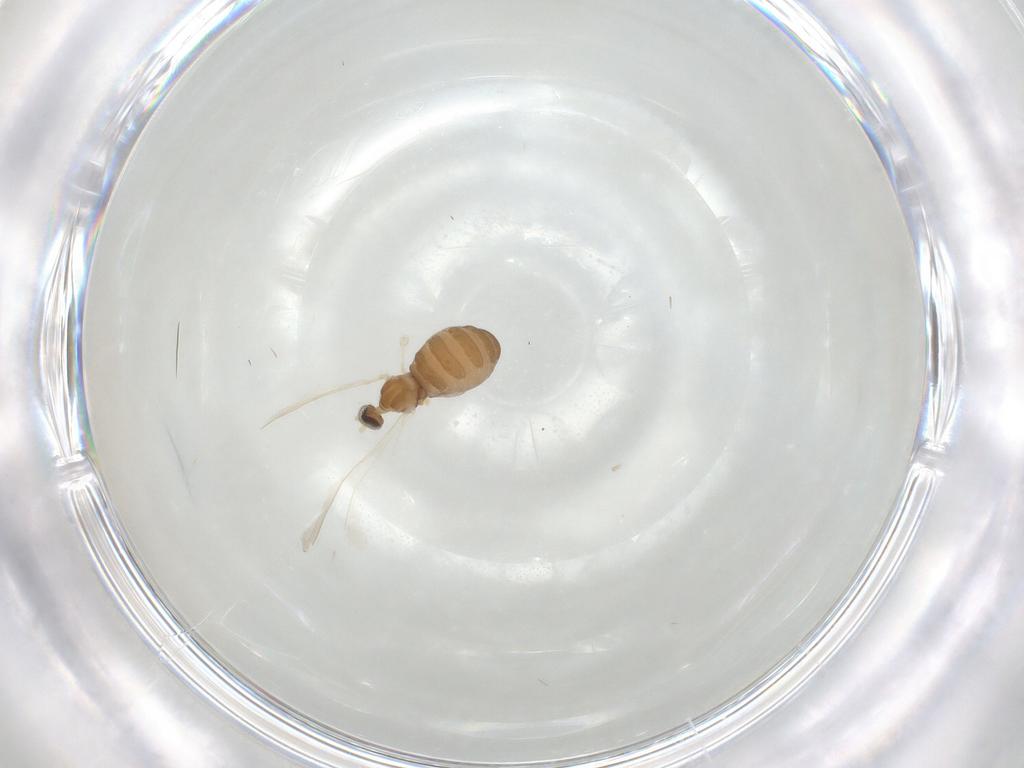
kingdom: Animalia
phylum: Arthropoda
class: Insecta
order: Diptera
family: Cecidomyiidae
